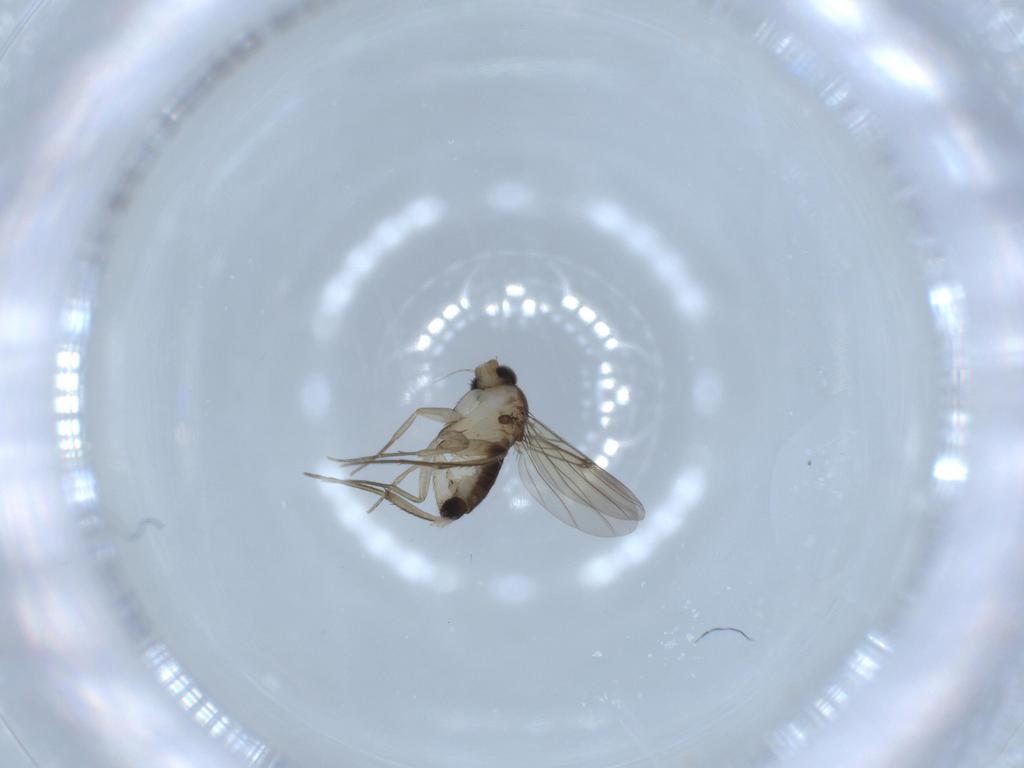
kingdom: Animalia
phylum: Arthropoda
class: Insecta
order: Diptera
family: Phoridae
